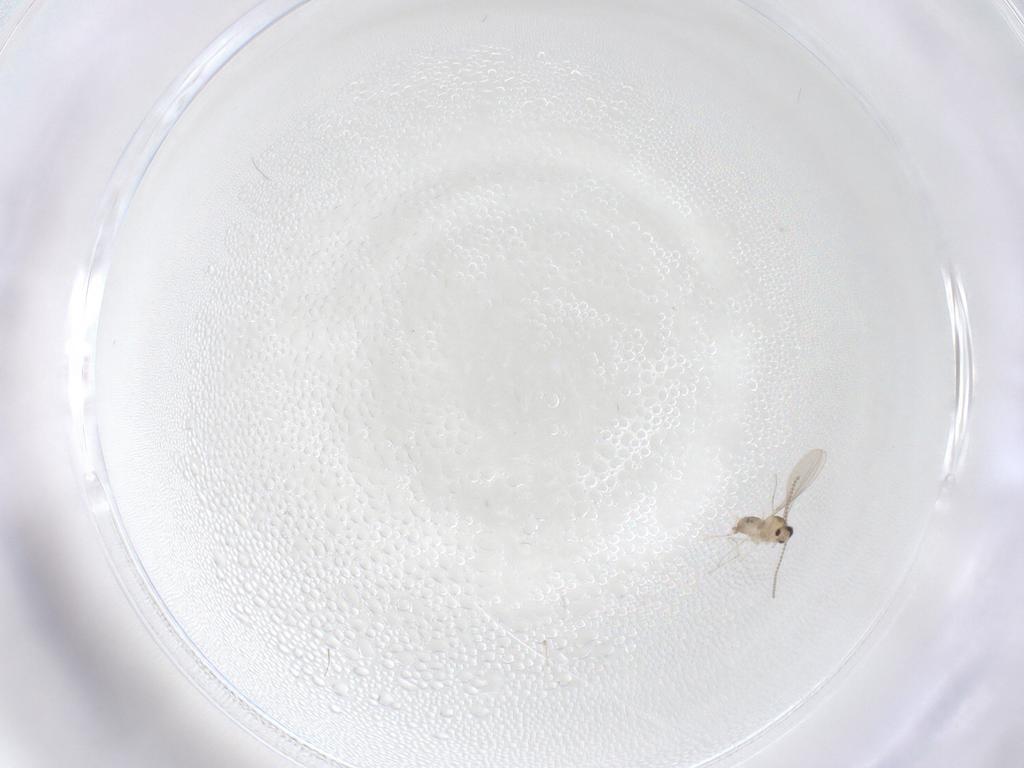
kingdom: Animalia
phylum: Arthropoda
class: Insecta
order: Diptera
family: Cecidomyiidae
